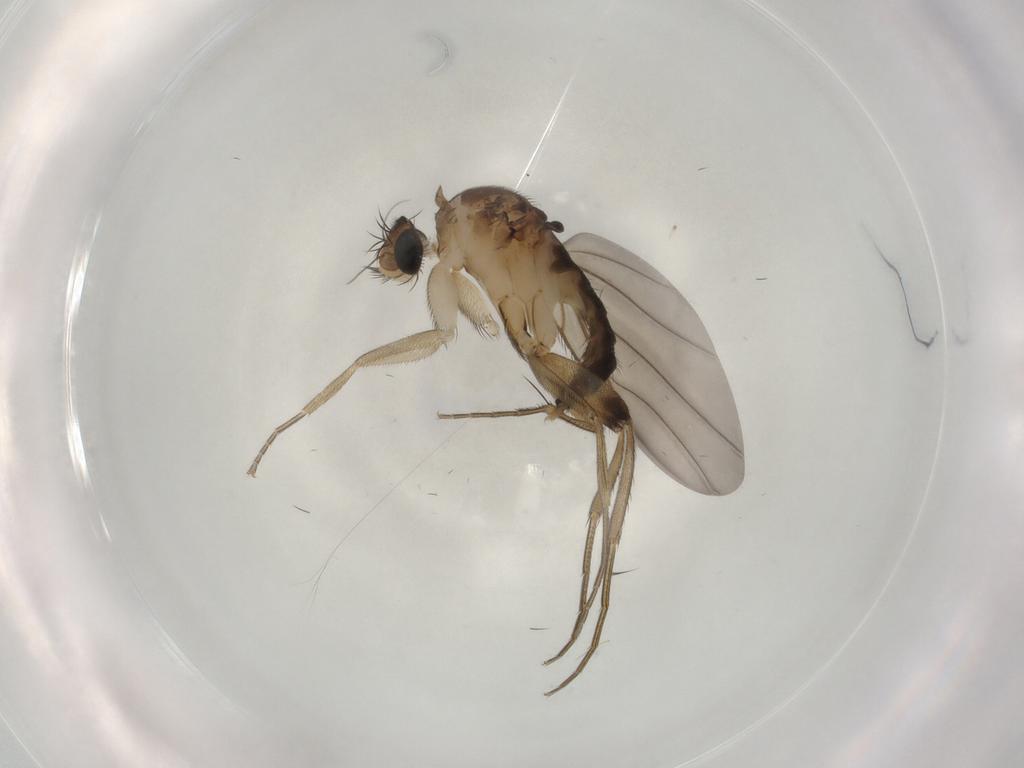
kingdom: Animalia
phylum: Arthropoda
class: Insecta
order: Diptera
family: Phoridae
